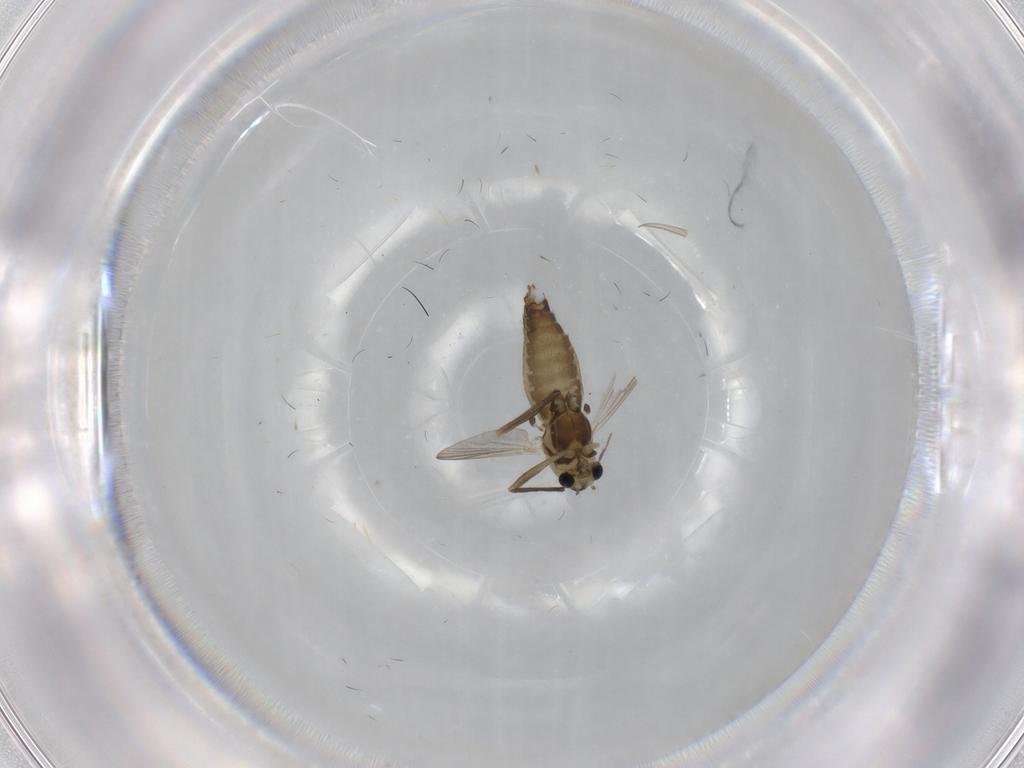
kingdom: Animalia
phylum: Arthropoda
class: Insecta
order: Diptera
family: Chironomidae
